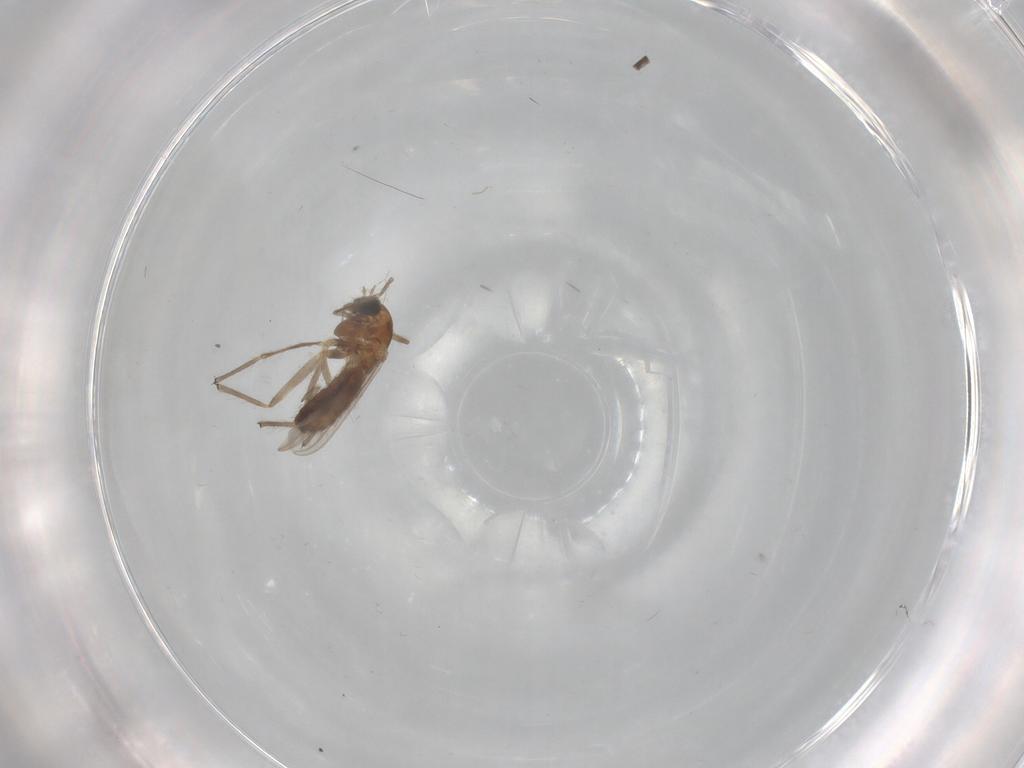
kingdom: Animalia
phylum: Arthropoda
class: Insecta
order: Diptera
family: Chironomidae
